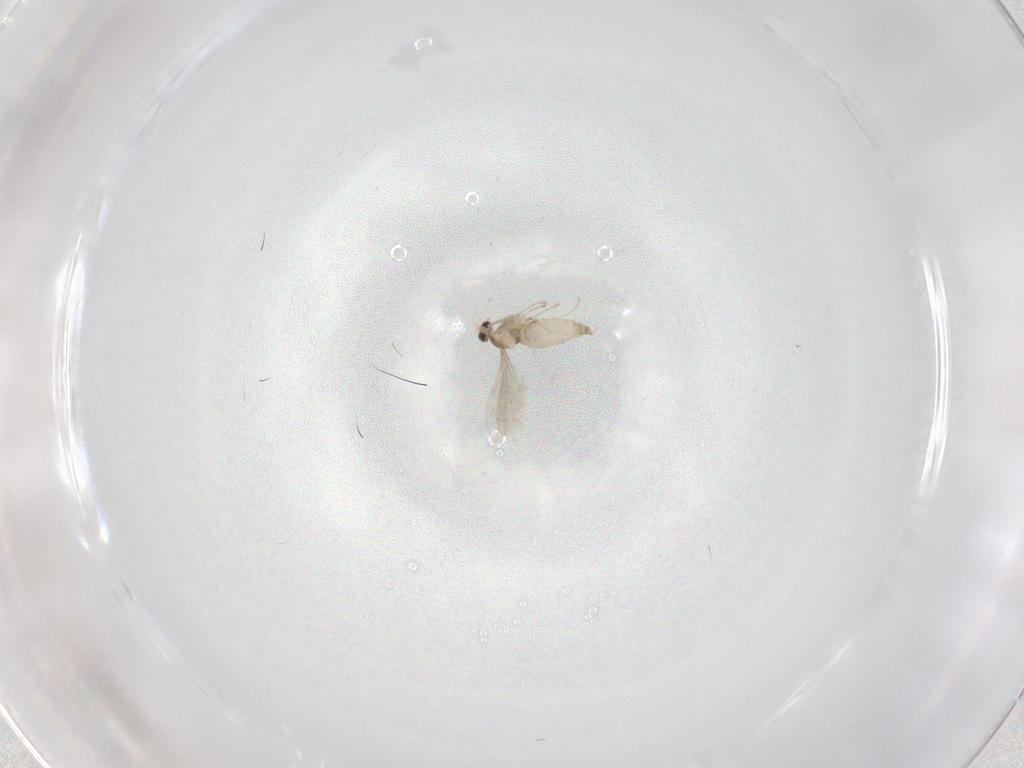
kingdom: Animalia
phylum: Arthropoda
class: Insecta
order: Diptera
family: Cecidomyiidae
